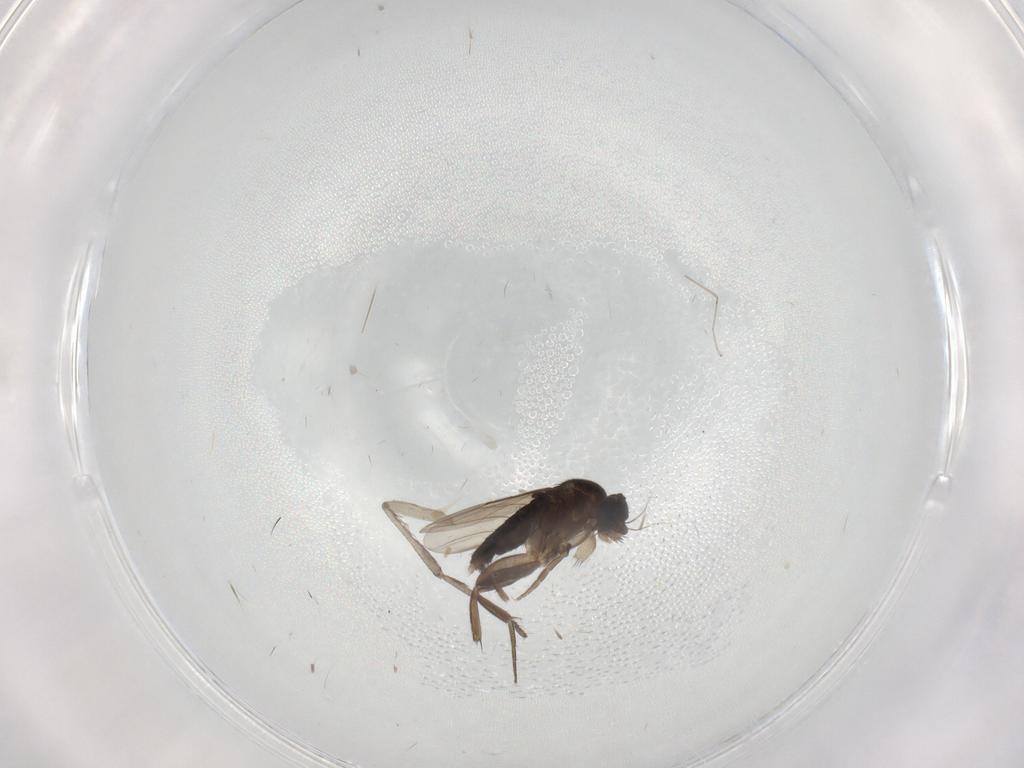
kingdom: Animalia
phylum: Arthropoda
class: Insecta
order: Diptera
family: Phoridae
